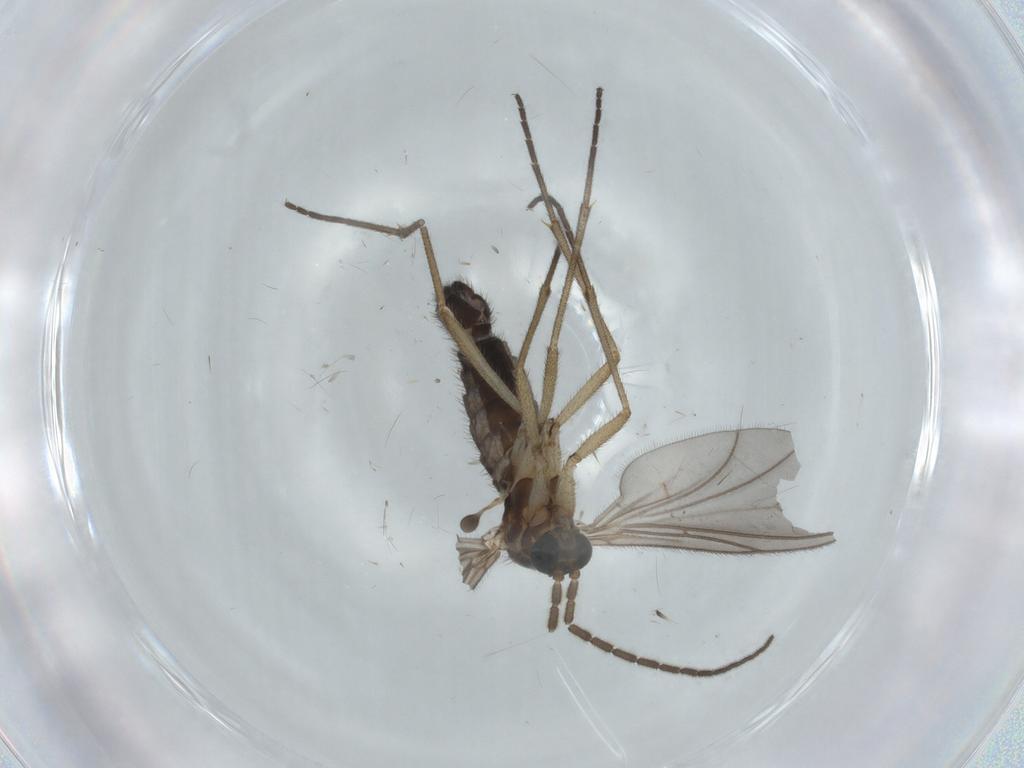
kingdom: Animalia
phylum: Arthropoda
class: Insecta
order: Diptera
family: Sciaridae
